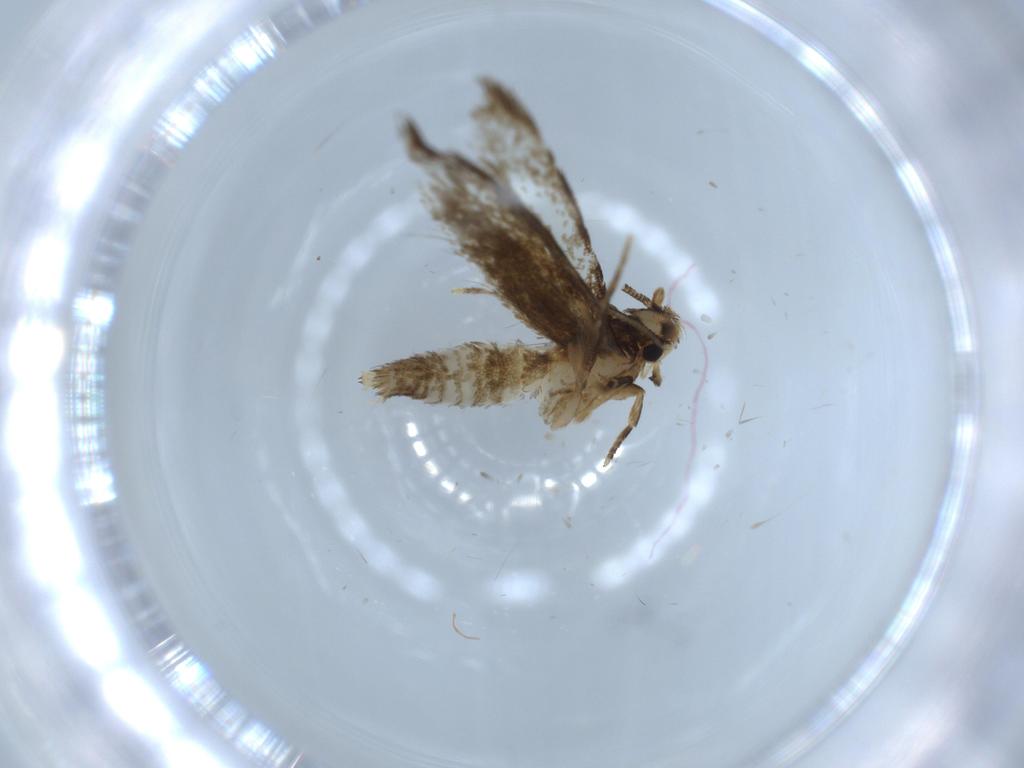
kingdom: Animalia
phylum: Arthropoda
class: Insecta
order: Lepidoptera
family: Tineidae
